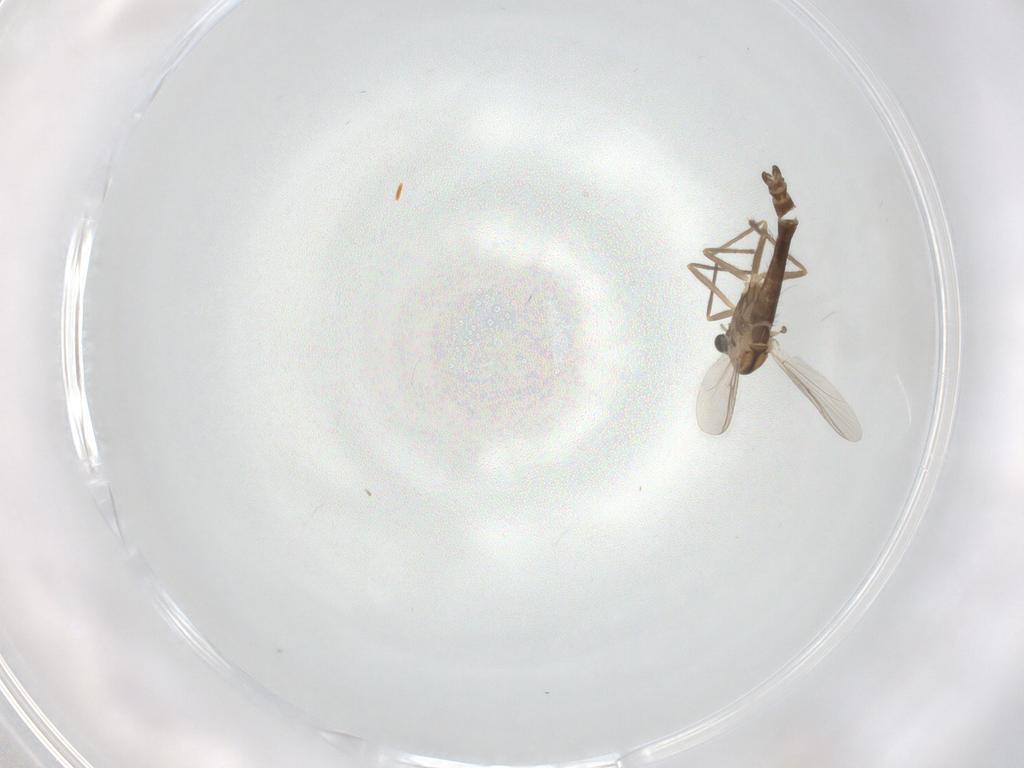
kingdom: Animalia
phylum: Arthropoda
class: Insecta
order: Diptera
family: Chironomidae
